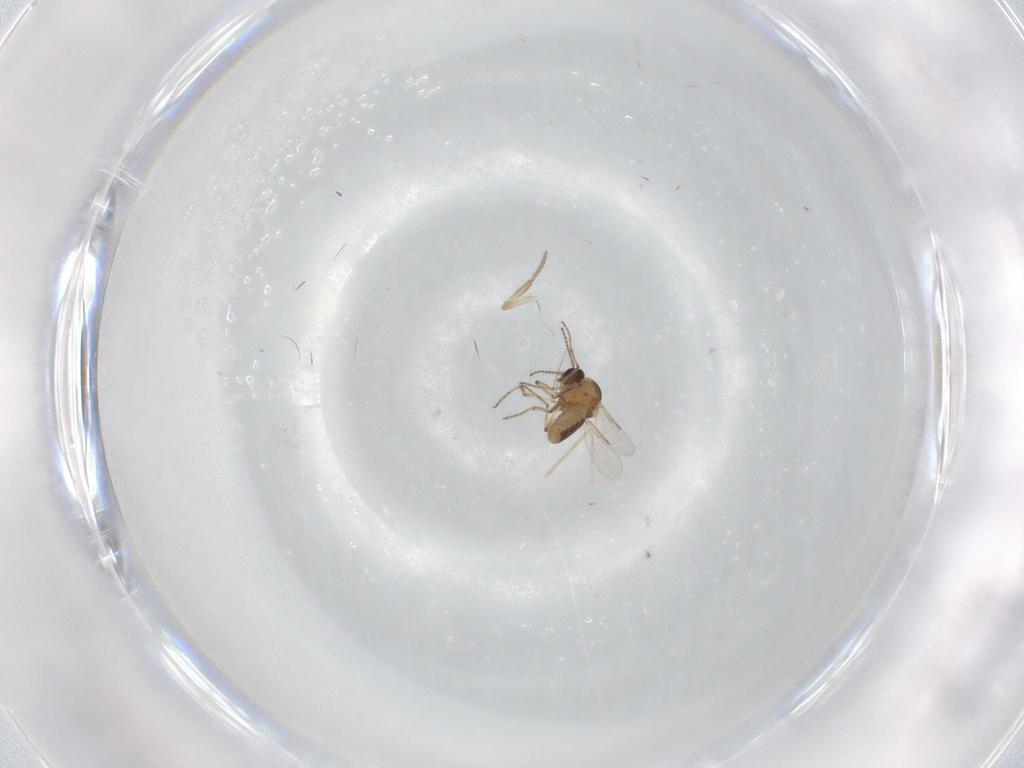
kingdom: Animalia
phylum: Arthropoda
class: Insecta
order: Diptera
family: Ceratopogonidae
